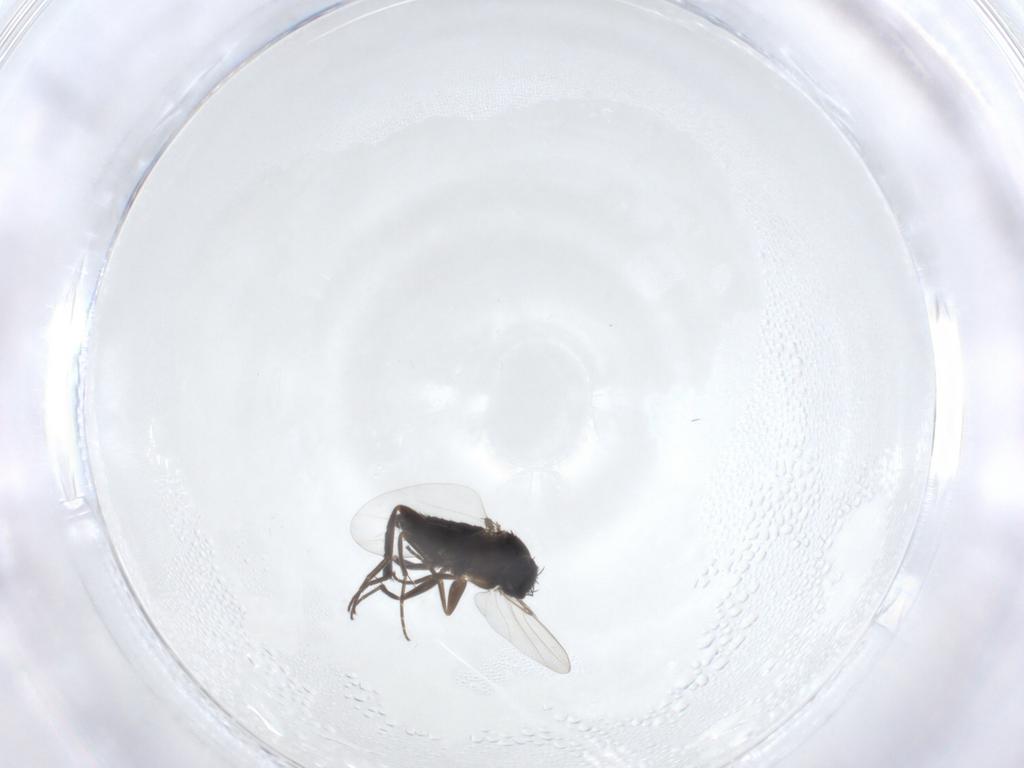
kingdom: Animalia
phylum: Arthropoda
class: Insecta
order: Diptera
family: Phoridae
